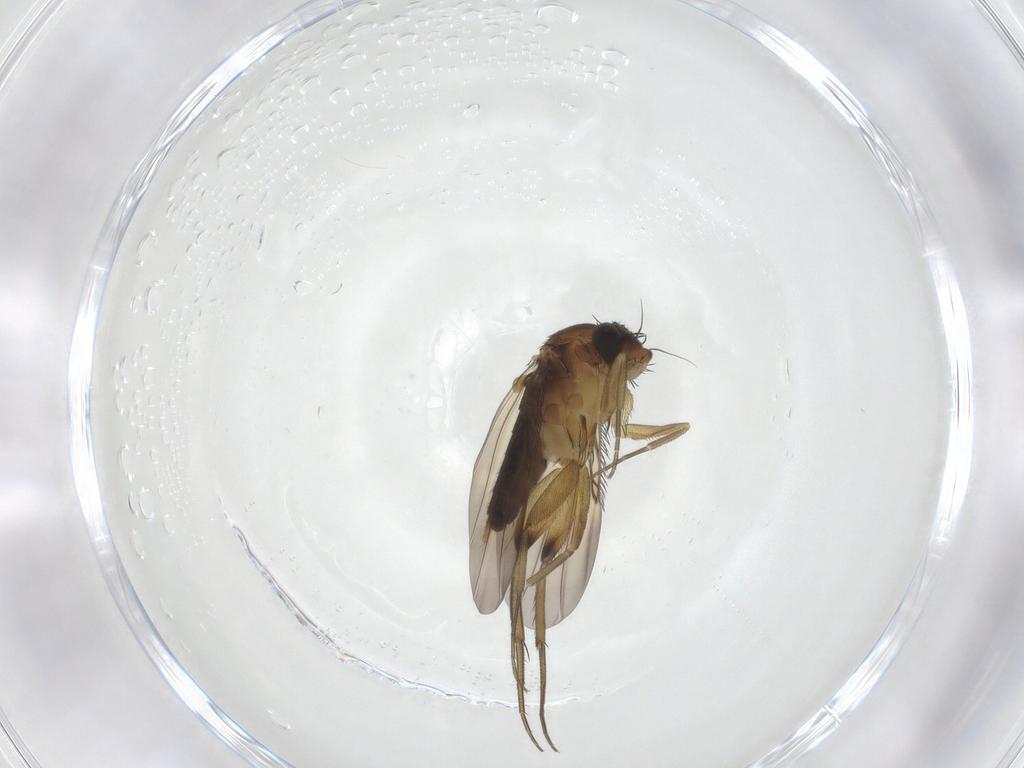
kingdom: Animalia
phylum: Arthropoda
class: Insecta
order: Diptera
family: Phoridae
